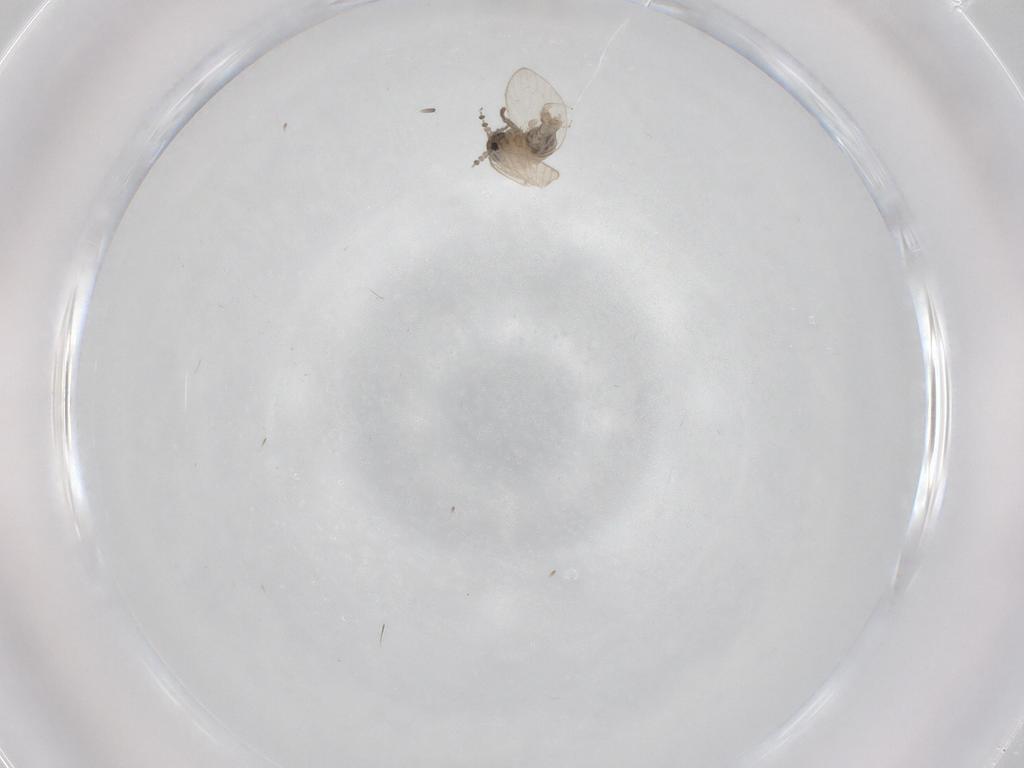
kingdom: Animalia
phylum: Arthropoda
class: Insecta
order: Diptera
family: Psychodidae
